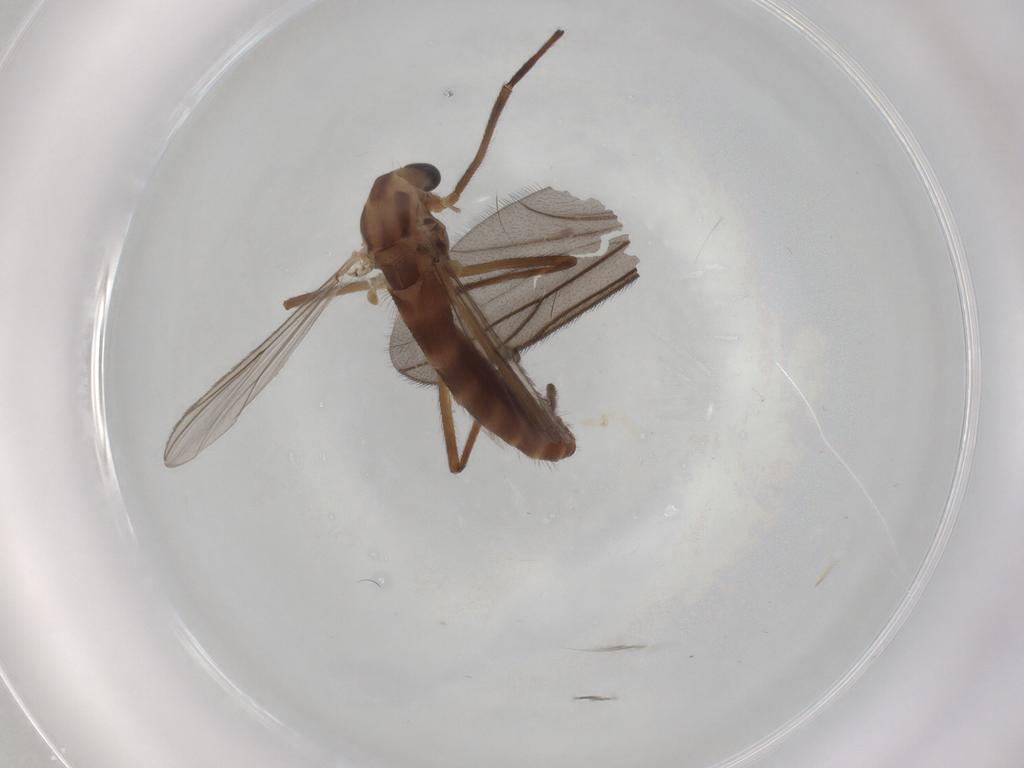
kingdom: Animalia
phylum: Arthropoda
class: Insecta
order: Diptera
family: Chironomidae
